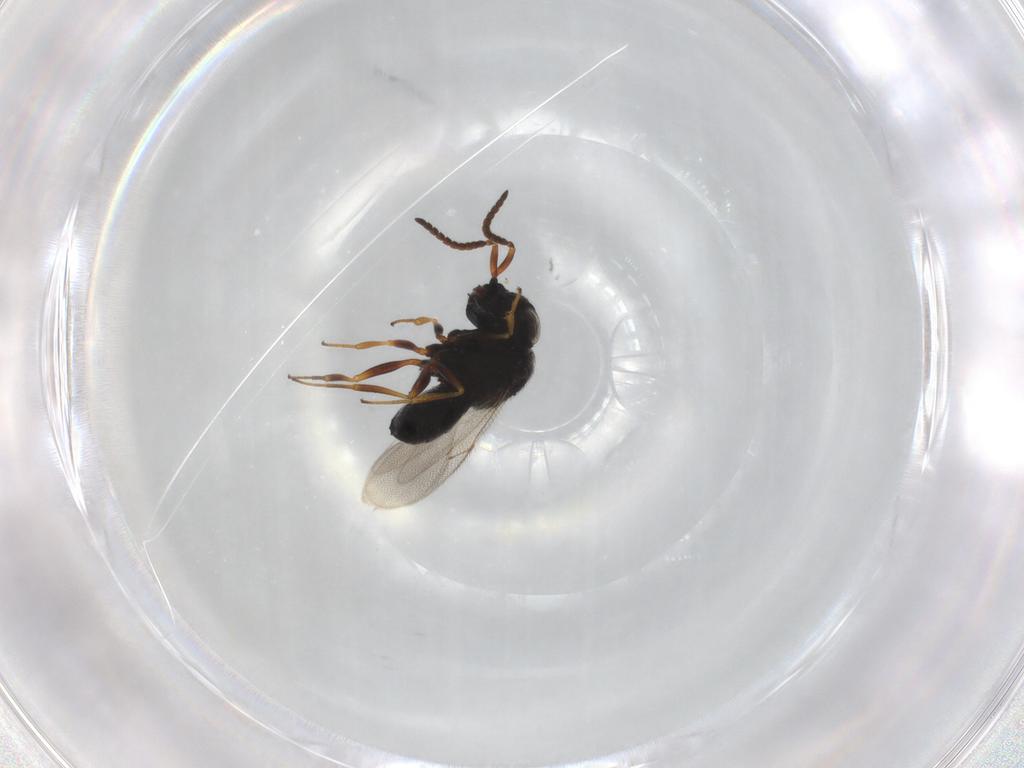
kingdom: Animalia
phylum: Arthropoda
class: Insecta
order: Hymenoptera
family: Scelionidae
